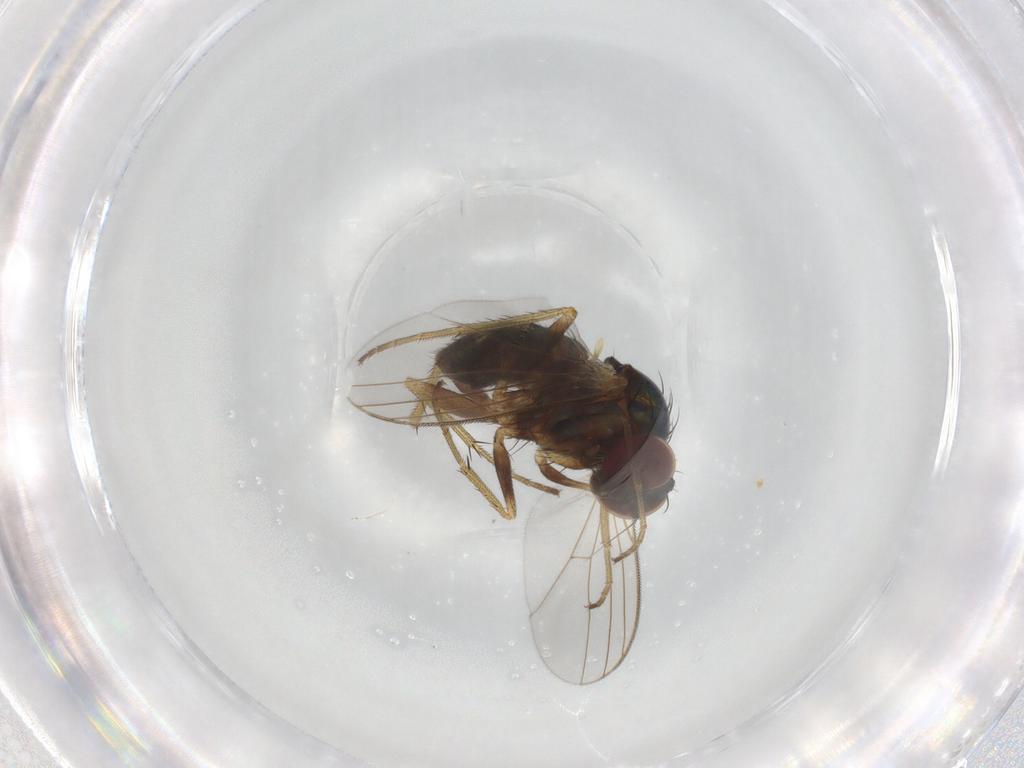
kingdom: Animalia
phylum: Arthropoda
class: Insecta
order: Diptera
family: Dolichopodidae
